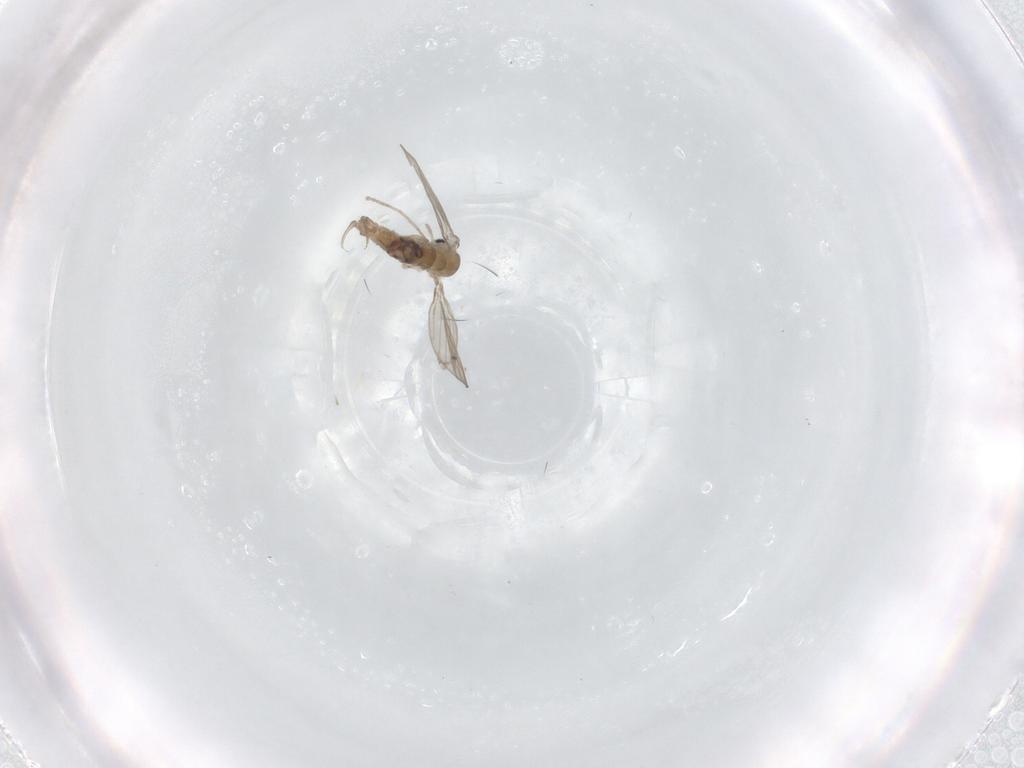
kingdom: Animalia
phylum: Arthropoda
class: Insecta
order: Diptera
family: Psychodidae
